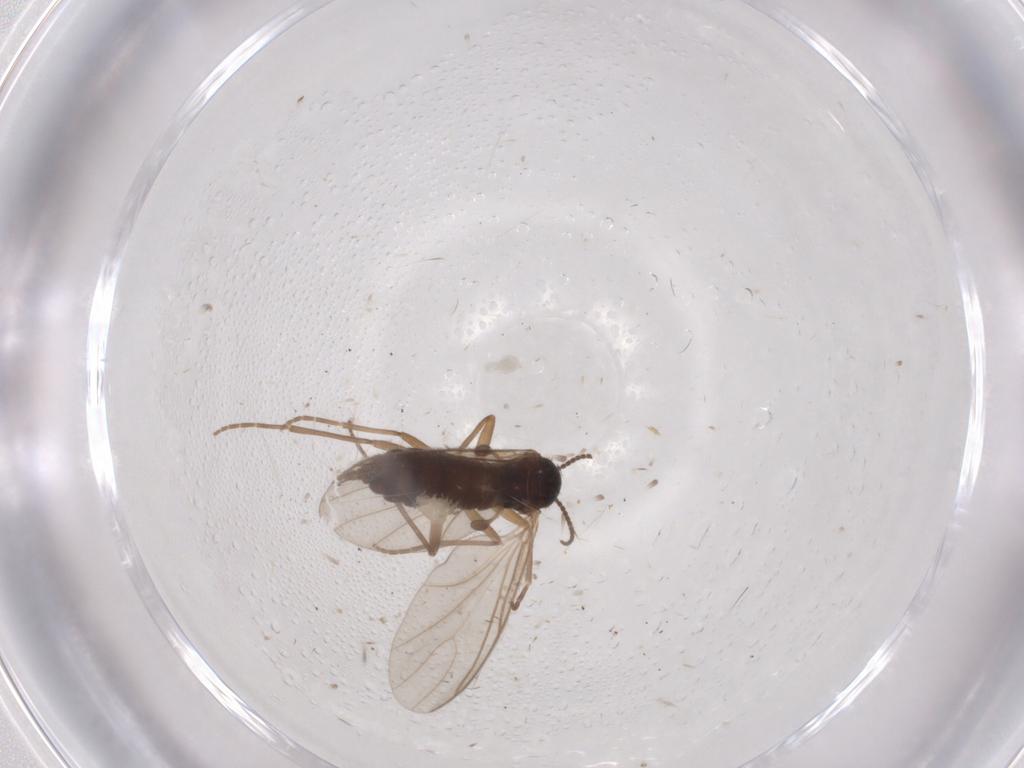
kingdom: Animalia
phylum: Arthropoda
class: Insecta
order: Diptera
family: Sciaridae
